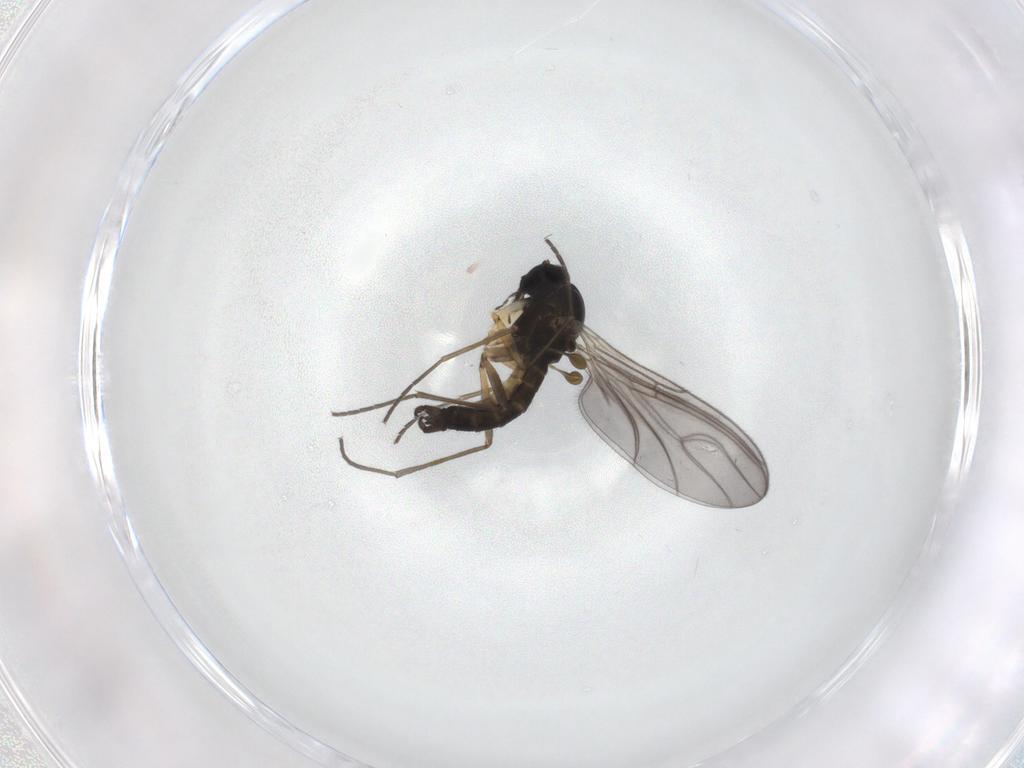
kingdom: Animalia
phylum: Arthropoda
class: Insecta
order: Diptera
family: Sciaridae
